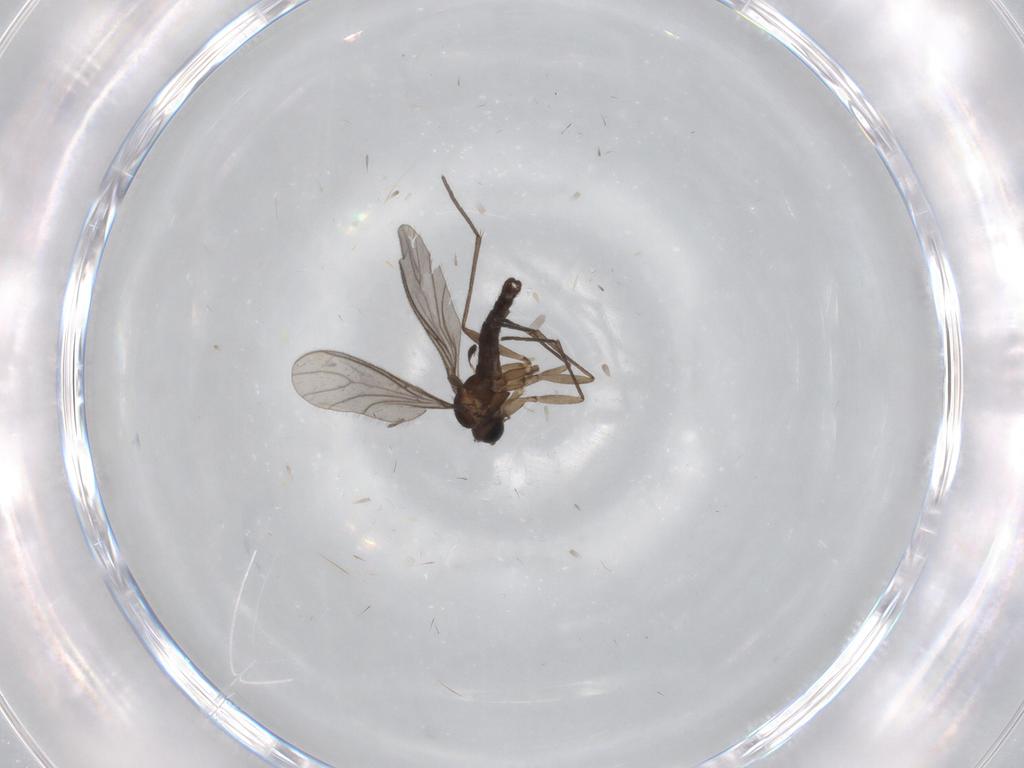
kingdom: Animalia
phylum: Arthropoda
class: Insecta
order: Diptera
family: Sciaridae
